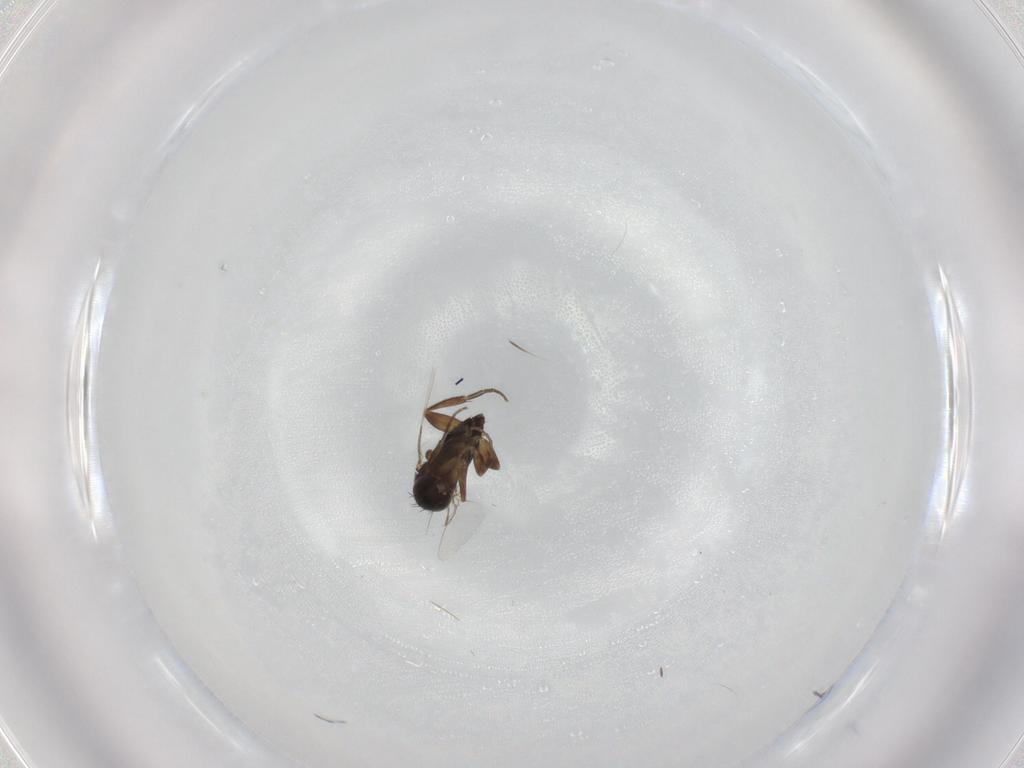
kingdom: Animalia
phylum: Arthropoda
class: Insecta
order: Diptera
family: Phoridae
